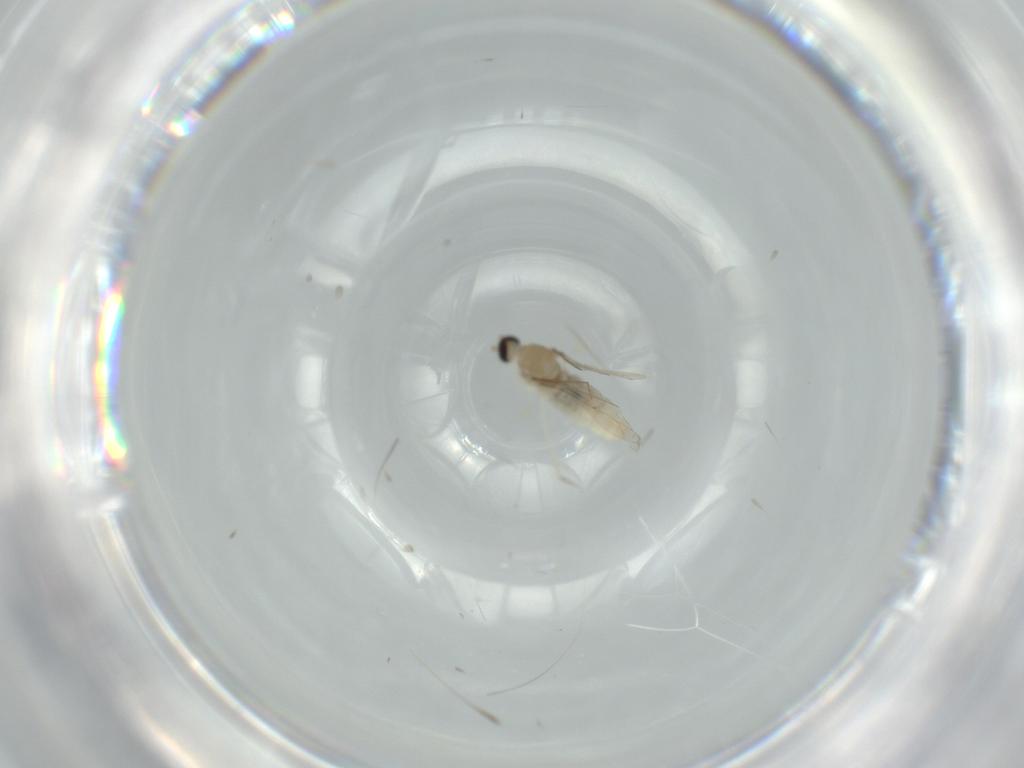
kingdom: Animalia
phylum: Arthropoda
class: Insecta
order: Diptera
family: Cecidomyiidae
